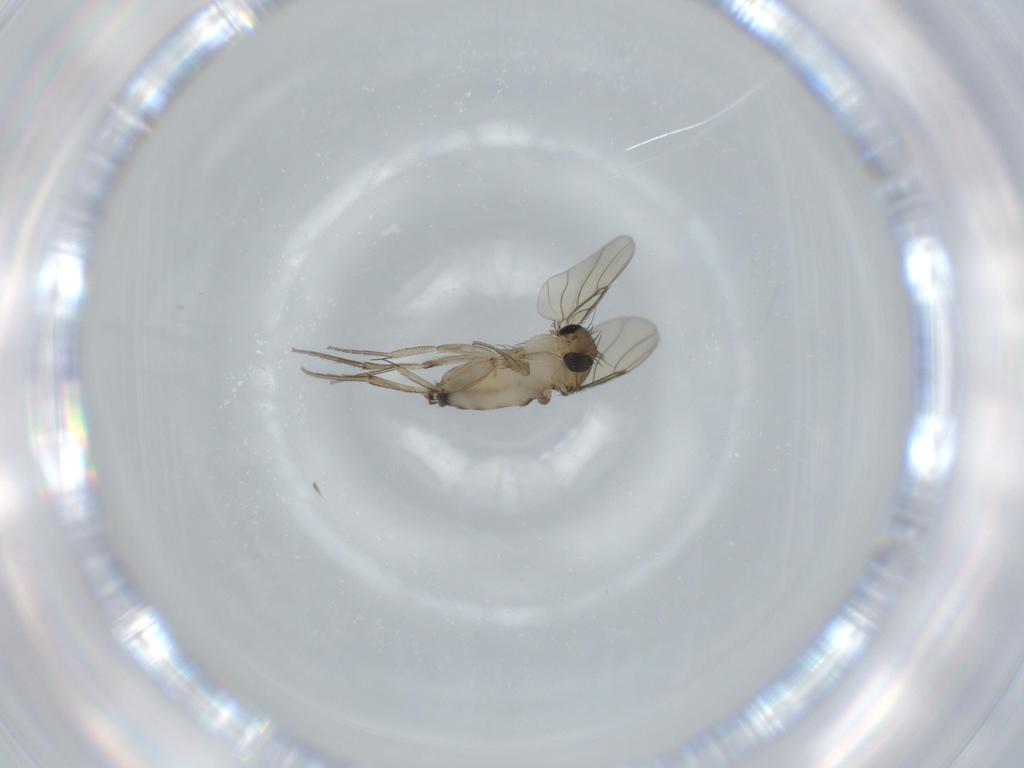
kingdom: Animalia
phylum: Arthropoda
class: Insecta
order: Diptera
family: Phoridae
